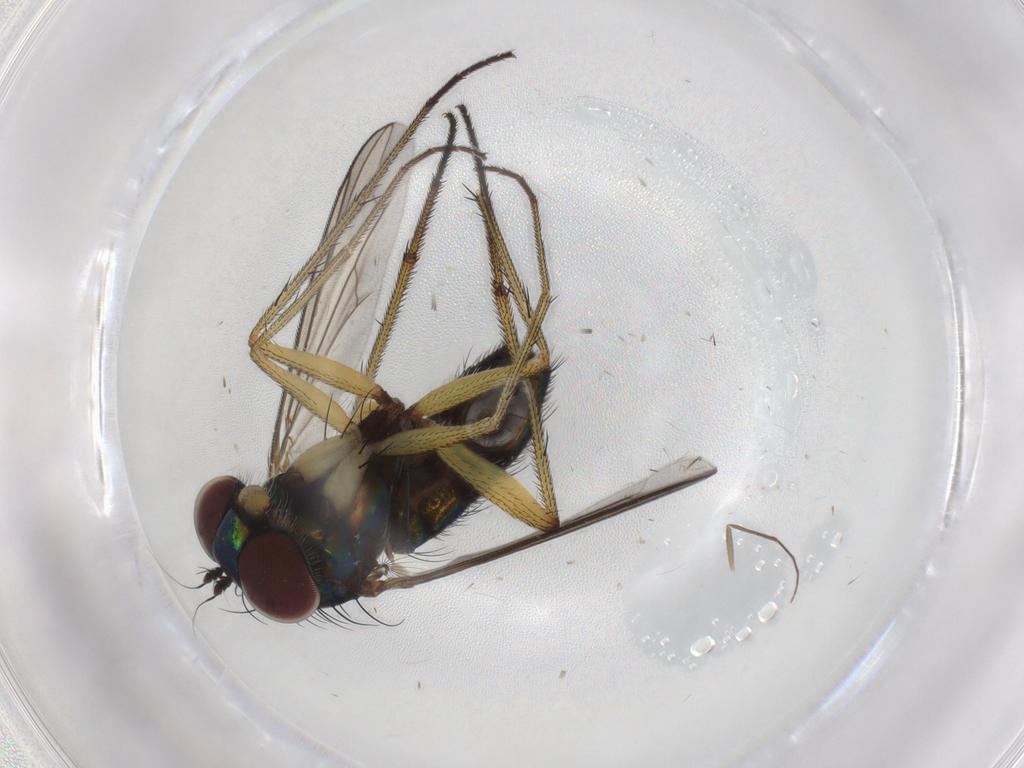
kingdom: Animalia
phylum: Arthropoda
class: Insecta
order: Diptera
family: Dolichopodidae
